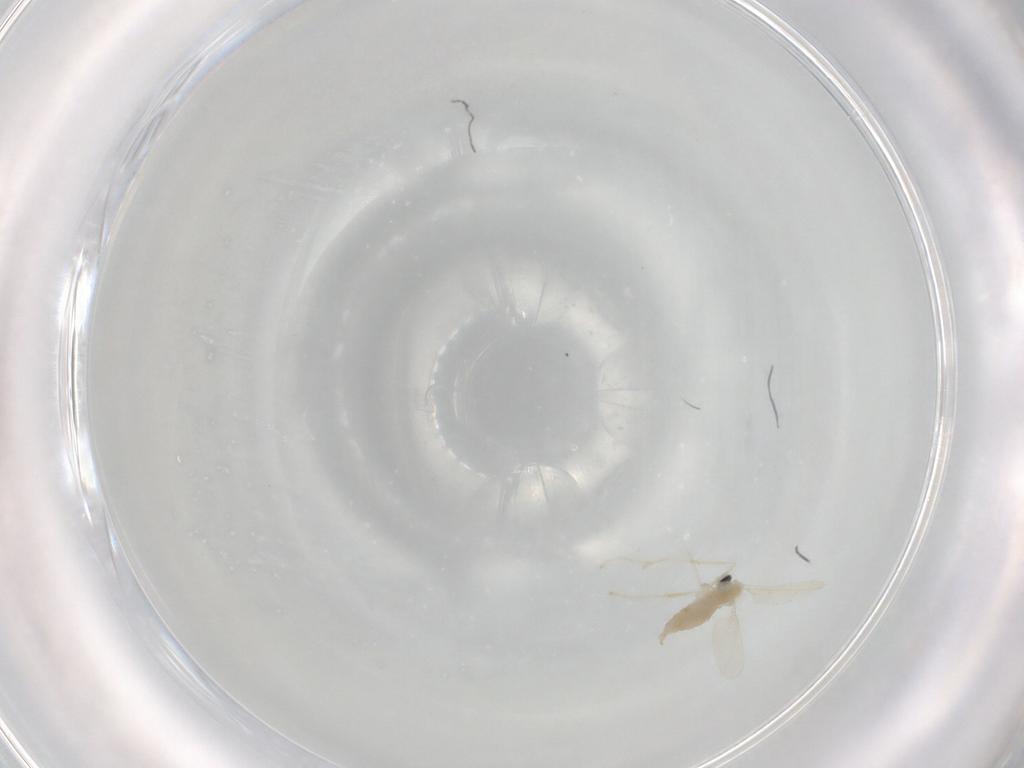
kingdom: Animalia
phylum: Arthropoda
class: Insecta
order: Diptera
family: Cecidomyiidae
